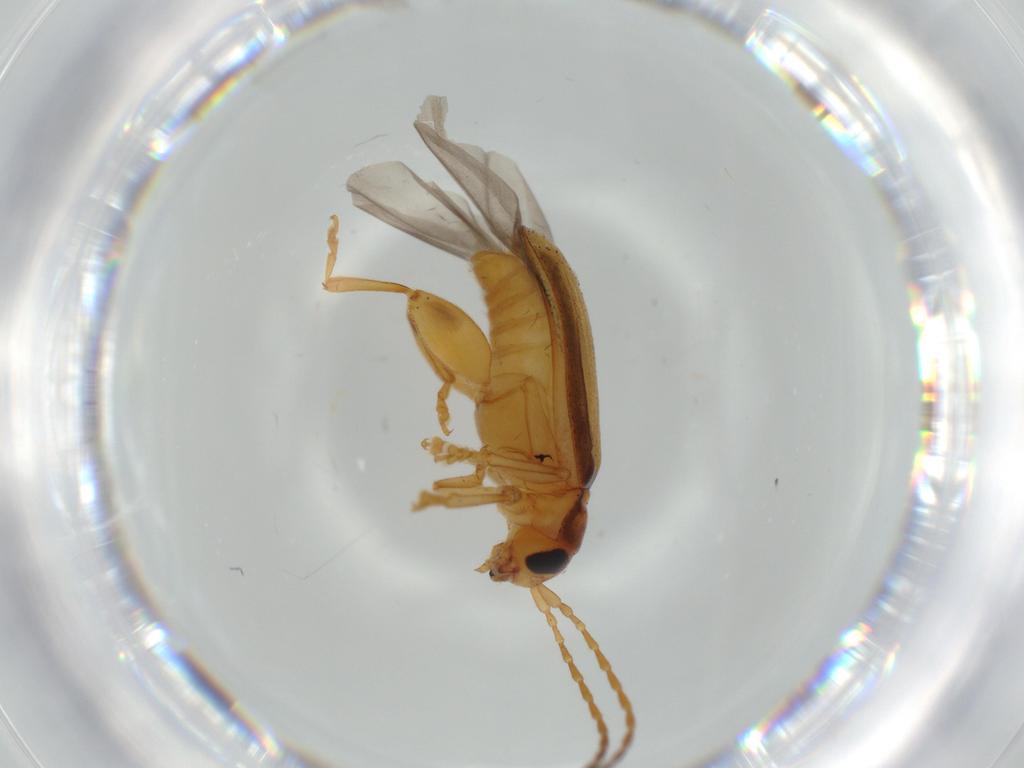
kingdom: Animalia
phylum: Arthropoda
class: Insecta
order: Coleoptera
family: Chrysomelidae
